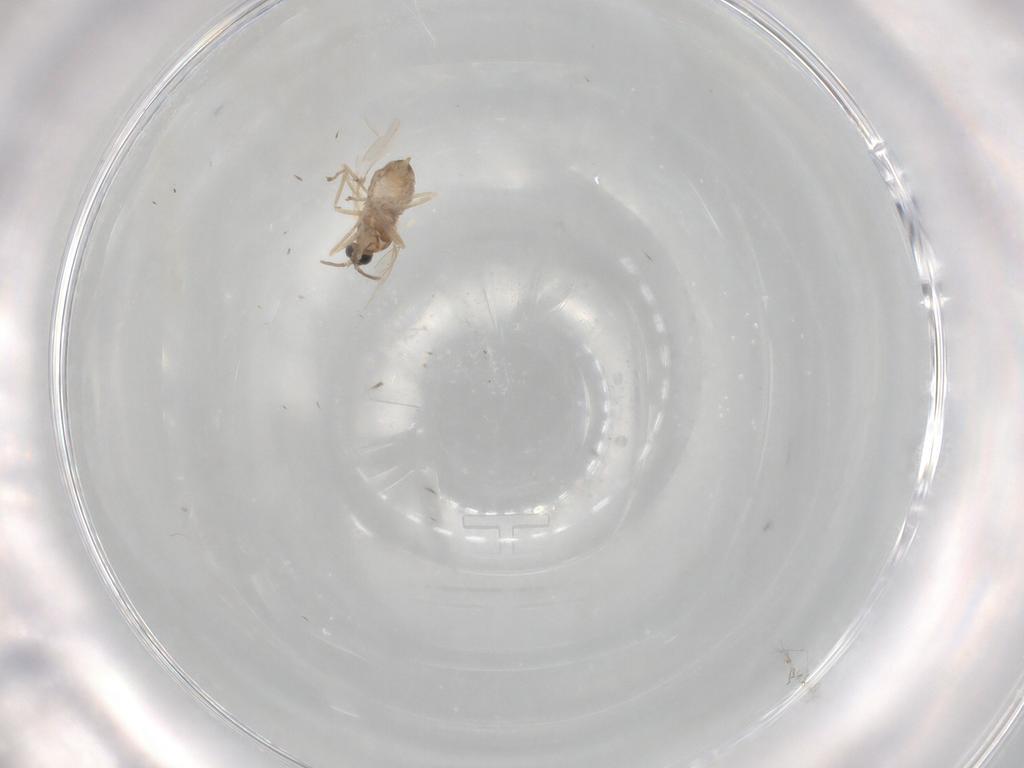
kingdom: Animalia
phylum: Arthropoda
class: Insecta
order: Diptera
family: Cecidomyiidae
